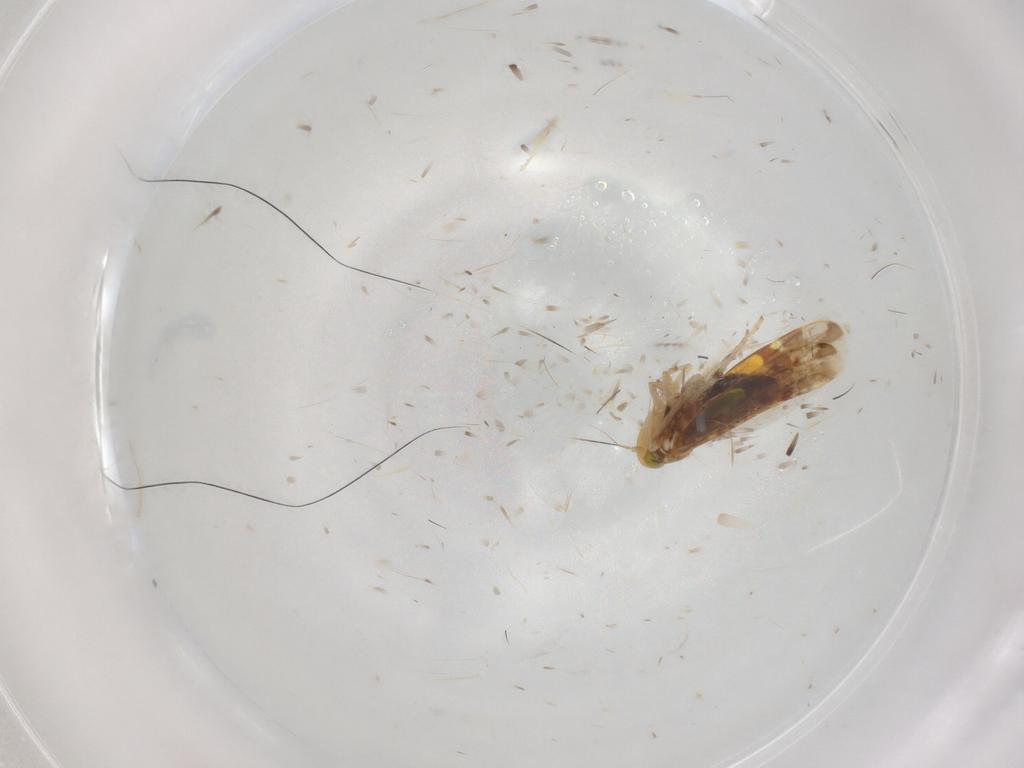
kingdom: Animalia
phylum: Arthropoda
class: Insecta
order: Hemiptera
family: Cicadellidae
